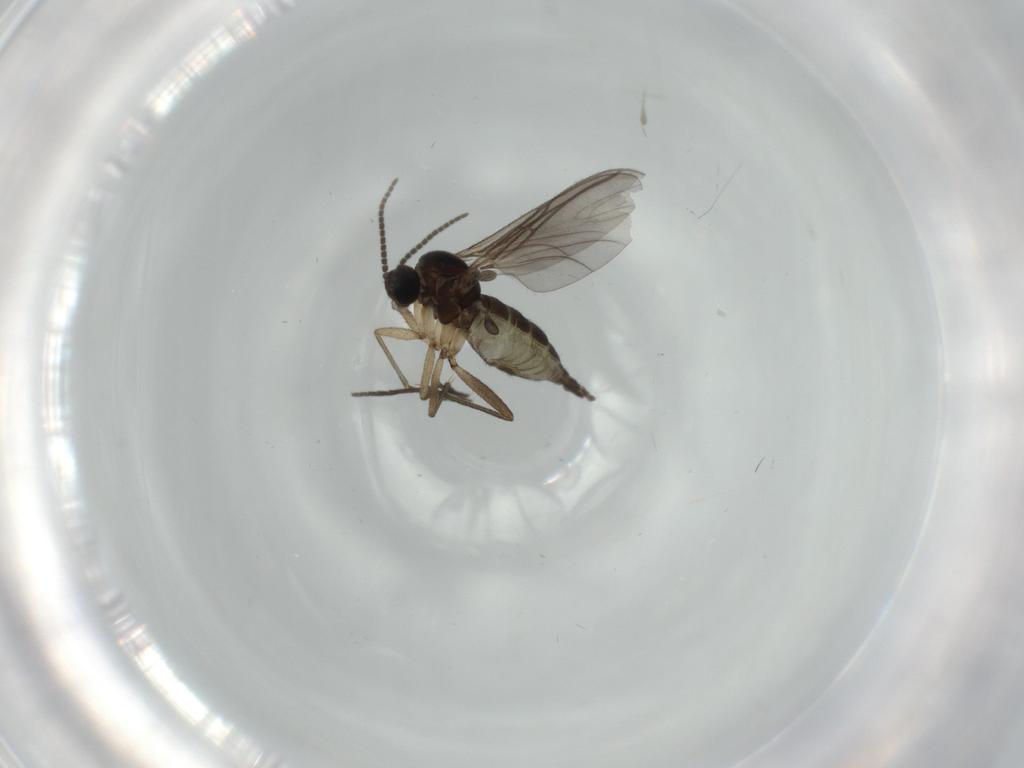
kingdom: Animalia
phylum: Arthropoda
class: Insecta
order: Diptera
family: Sciaridae
